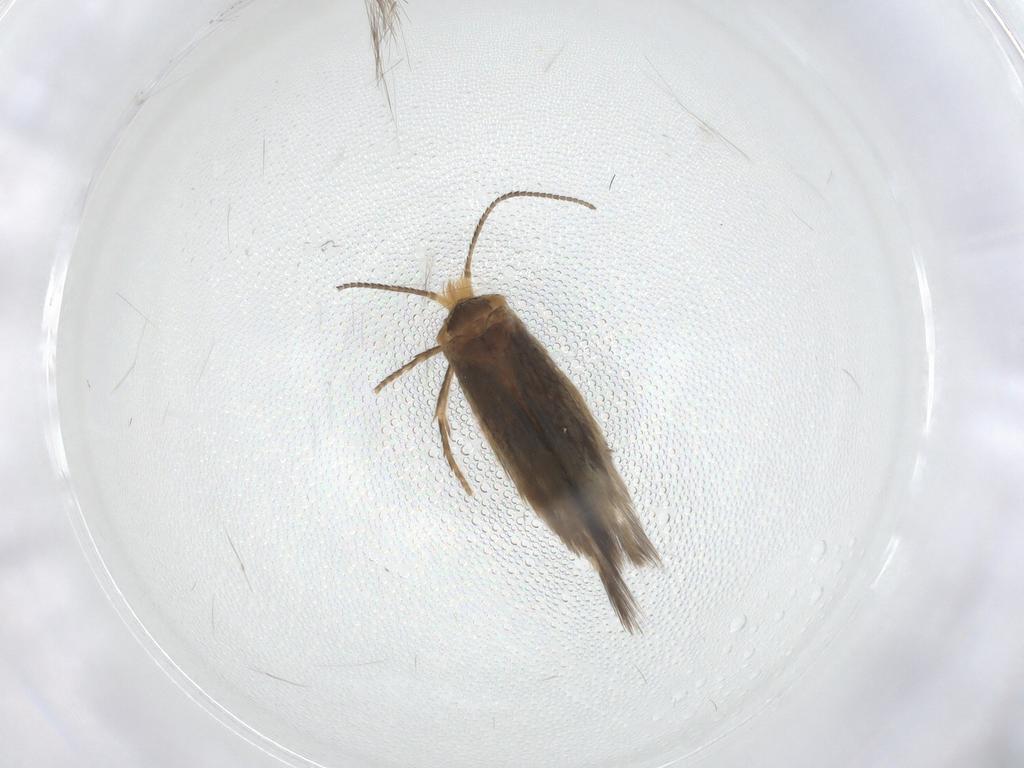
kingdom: Animalia
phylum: Arthropoda
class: Insecta
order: Lepidoptera
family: Nepticulidae
